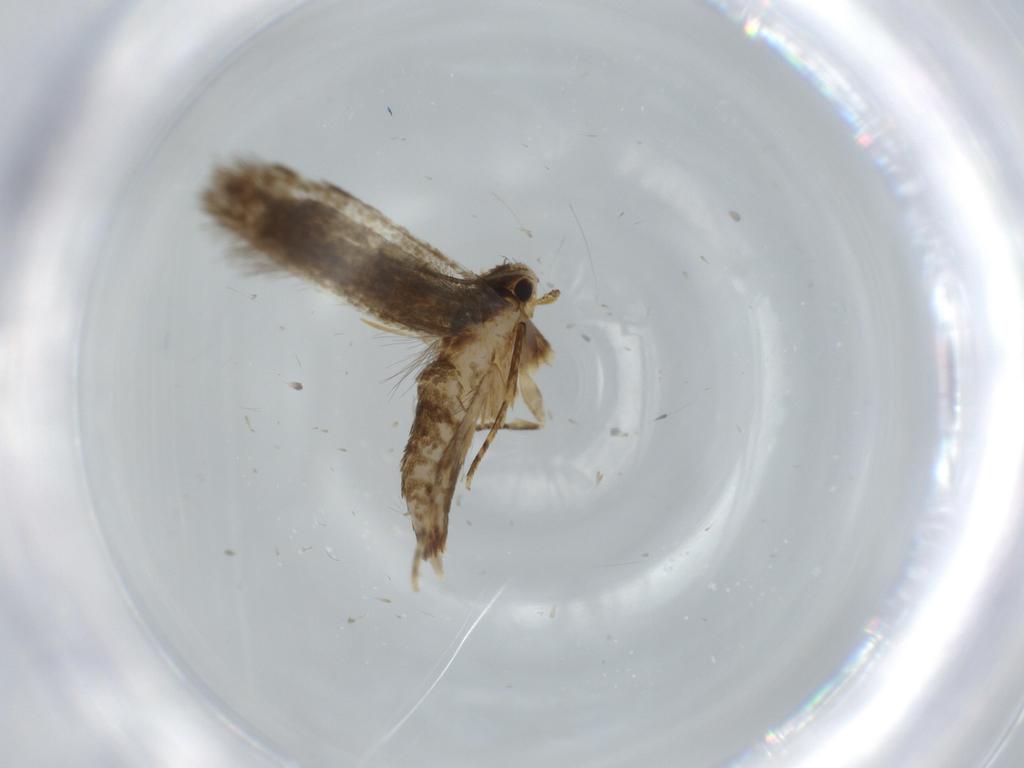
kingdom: Animalia
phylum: Arthropoda
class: Insecta
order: Lepidoptera
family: Tineidae
